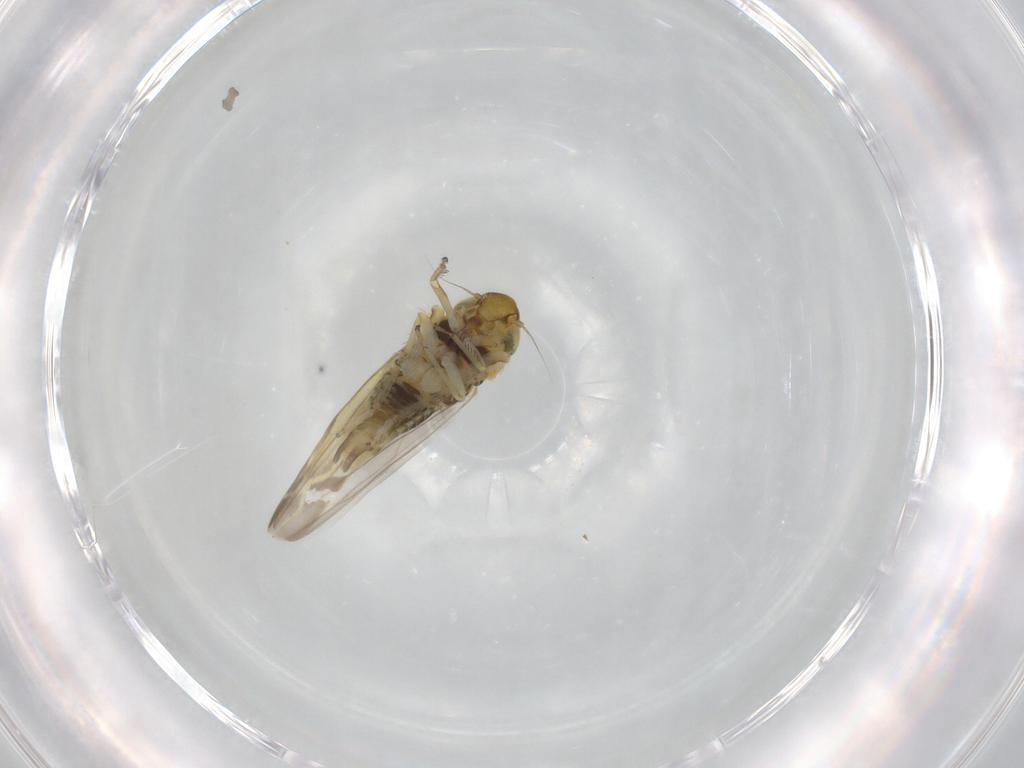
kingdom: Animalia
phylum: Arthropoda
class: Insecta
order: Hemiptera
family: Cicadellidae
